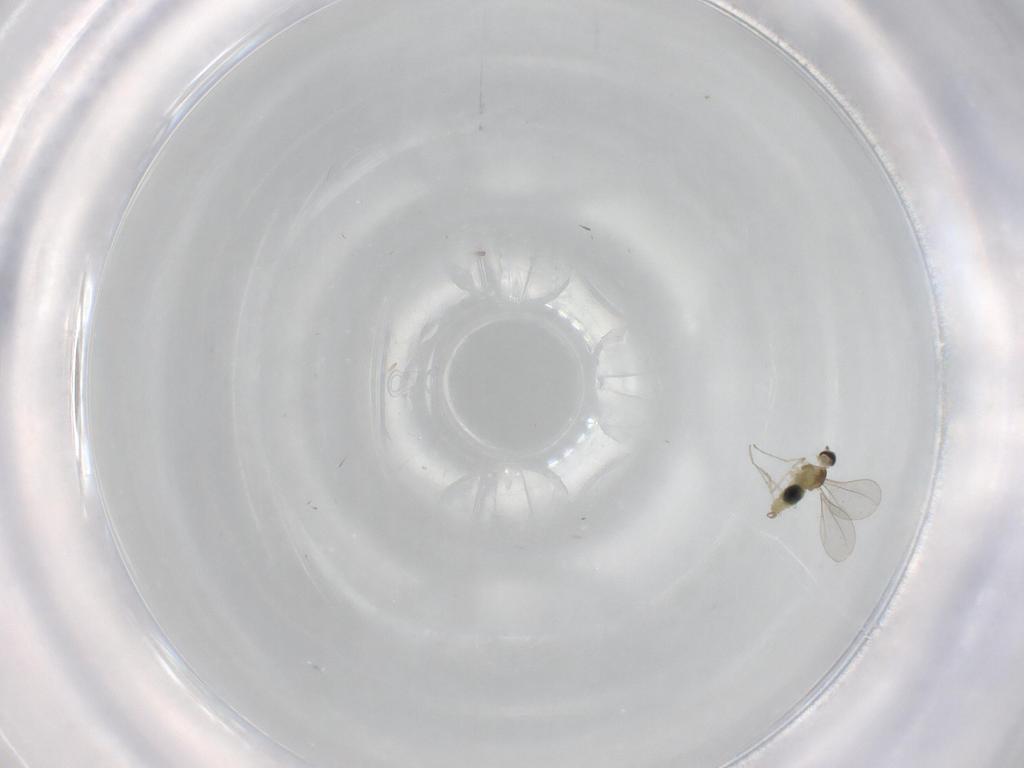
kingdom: Animalia
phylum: Arthropoda
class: Insecta
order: Diptera
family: Cecidomyiidae
